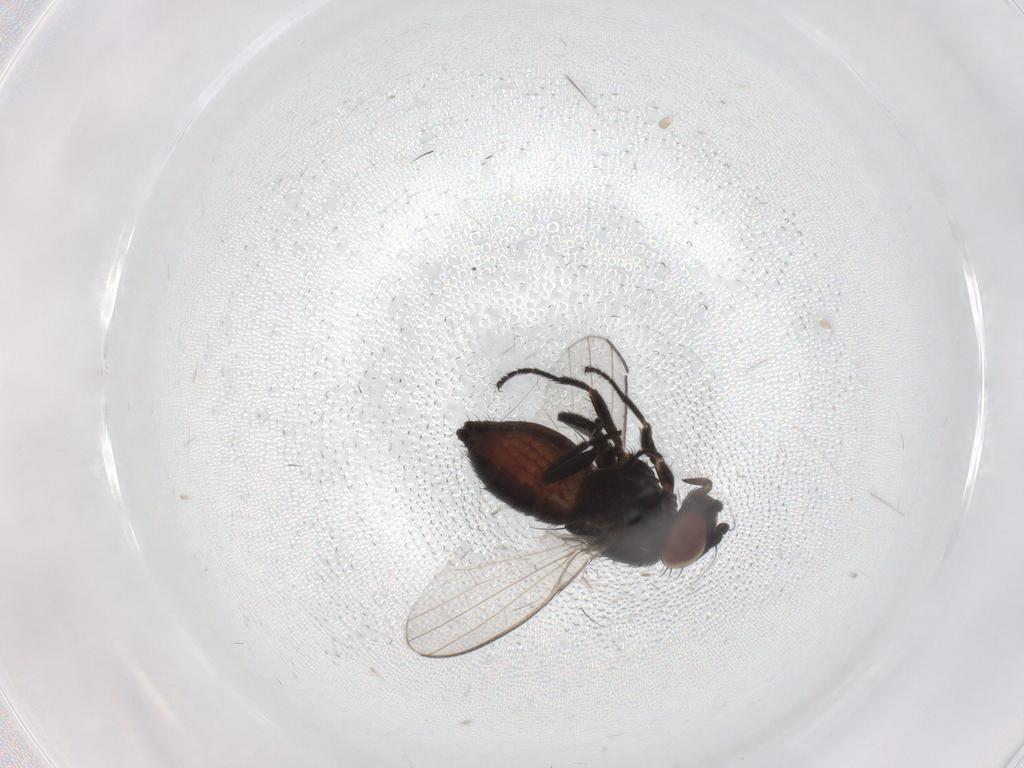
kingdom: Animalia
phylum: Arthropoda
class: Insecta
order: Diptera
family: Milichiidae
